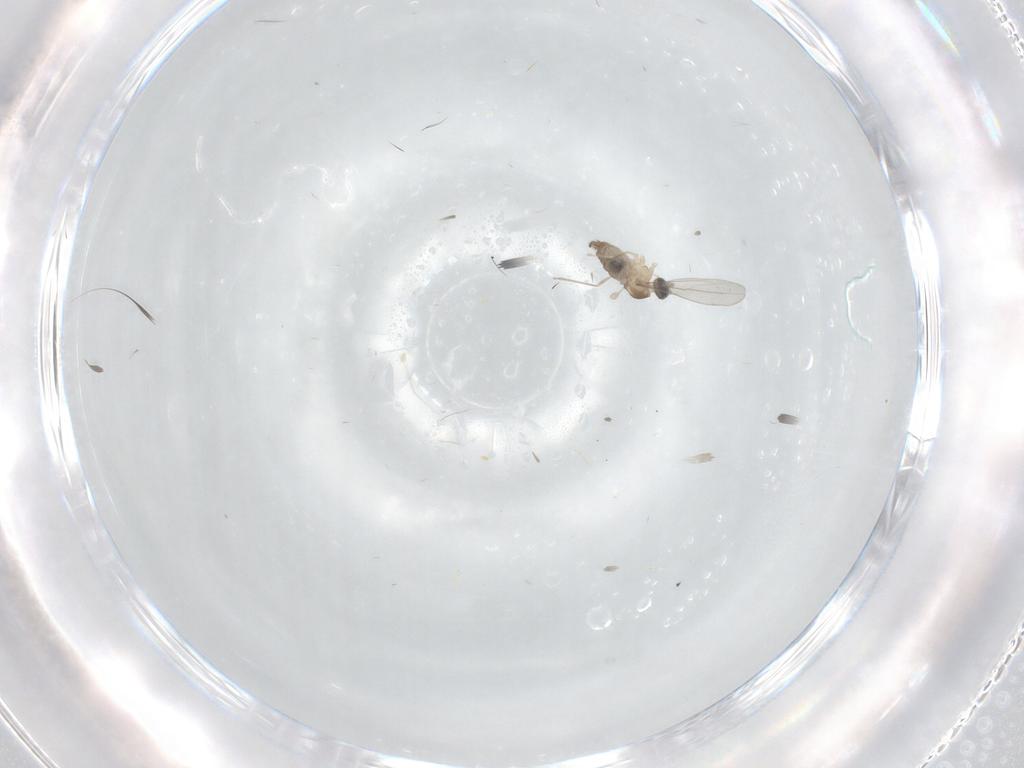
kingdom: Animalia
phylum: Arthropoda
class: Insecta
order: Diptera
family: Cecidomyiidae
